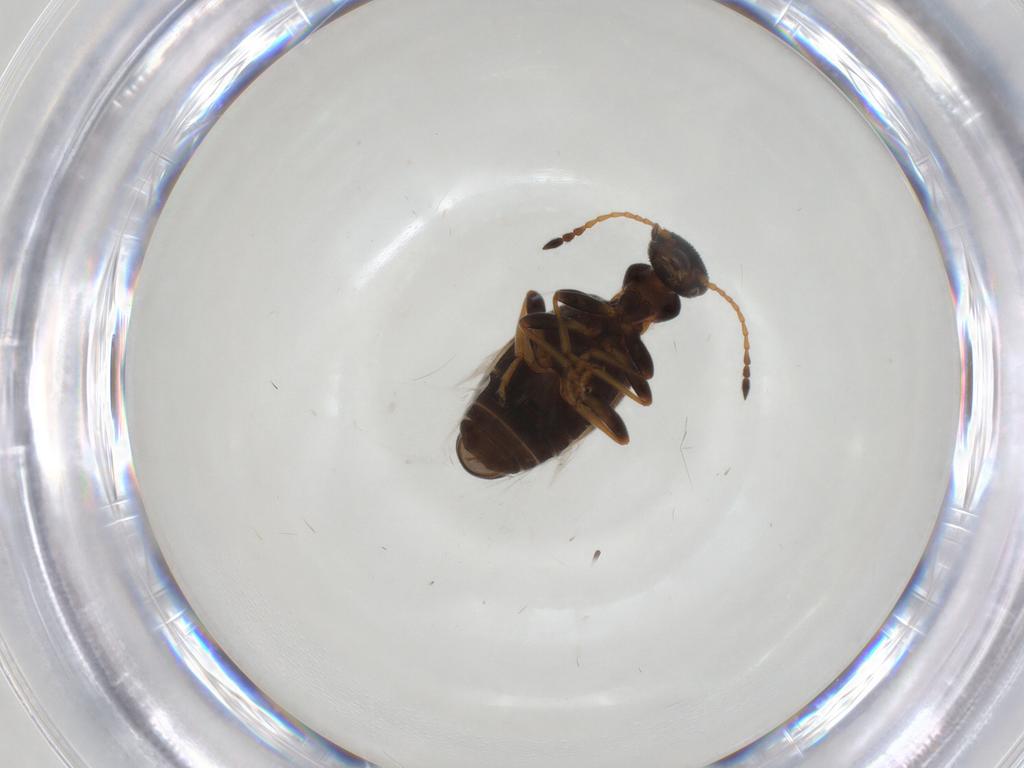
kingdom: Animalia
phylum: Arthropoda
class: Insecta
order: Coleoptera
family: Anthicidae
